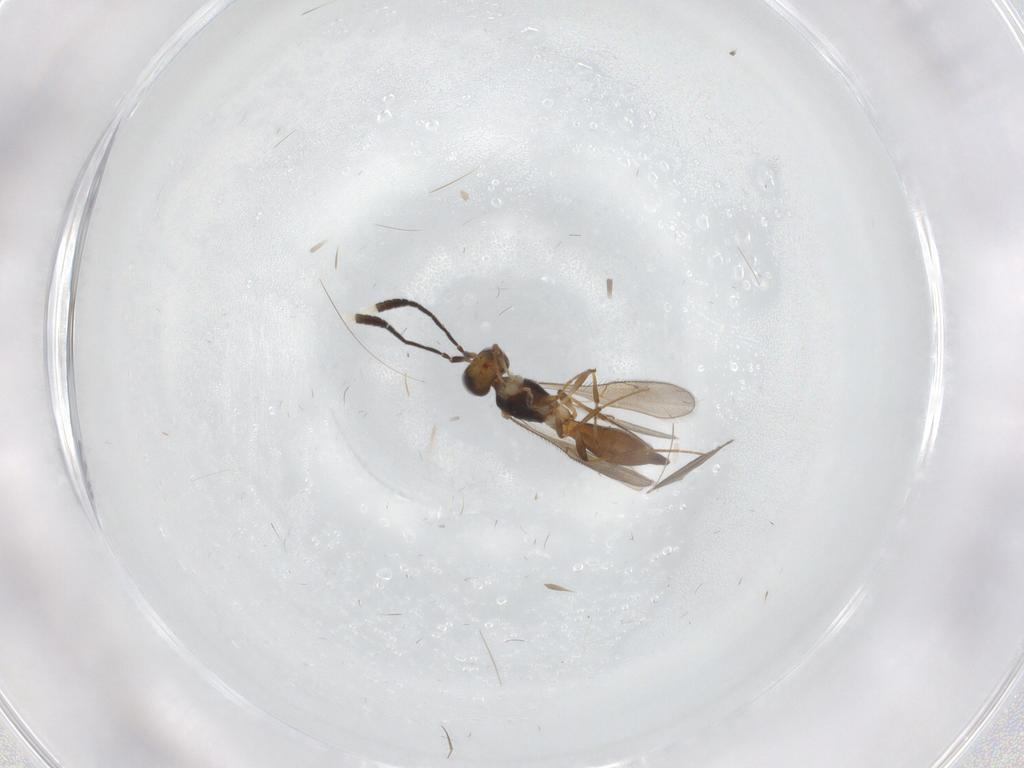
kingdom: Animalia
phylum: Arthropoda
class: Insecta
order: Hymenoptera
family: Bethylidae
